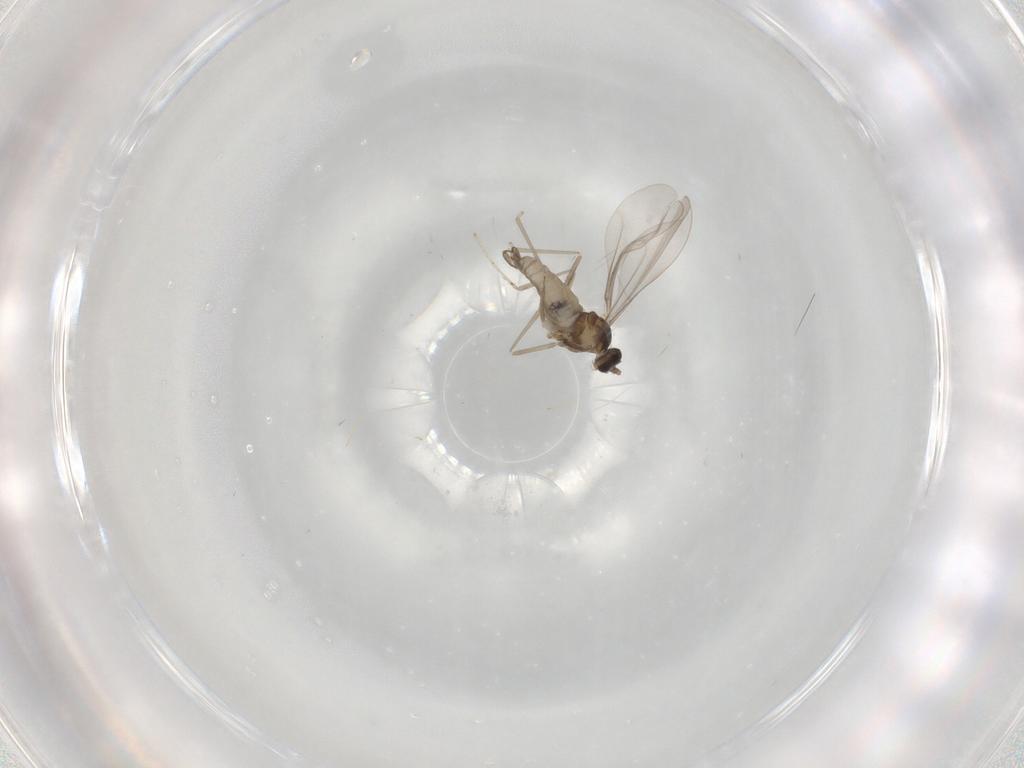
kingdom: Animalia
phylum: Arthropoda
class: Insecta
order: Diptera
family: Cecidomyiidae
